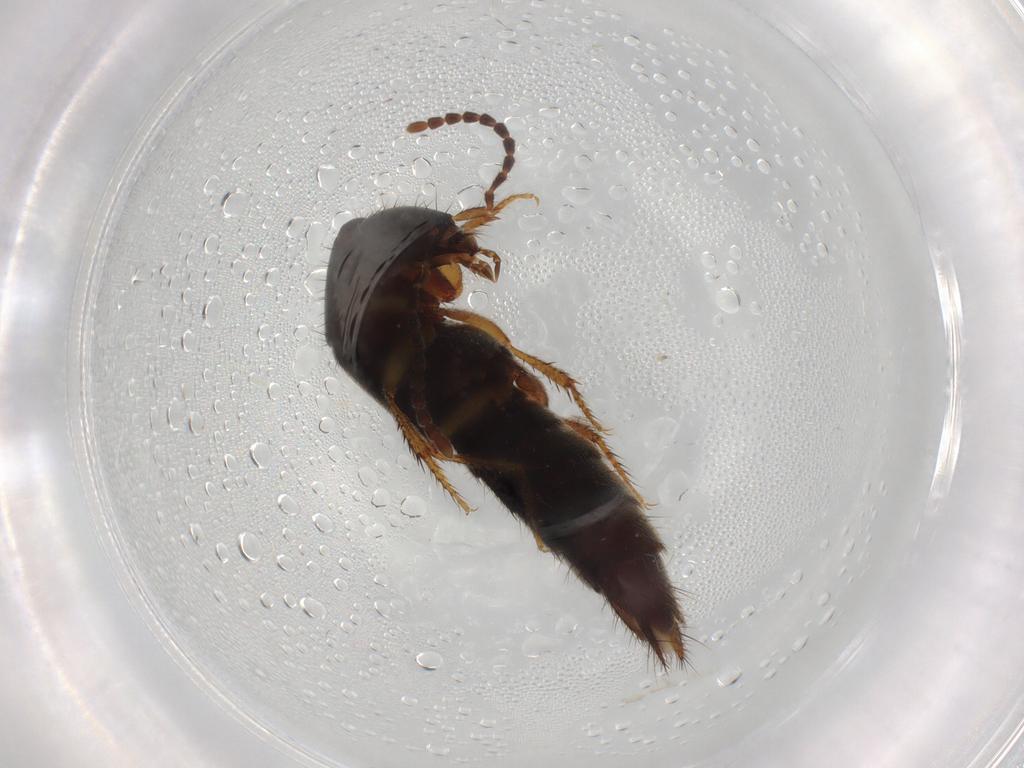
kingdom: Animalia
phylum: Arthropoda
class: Insecta
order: Coleoptera
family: Staphylinidae
